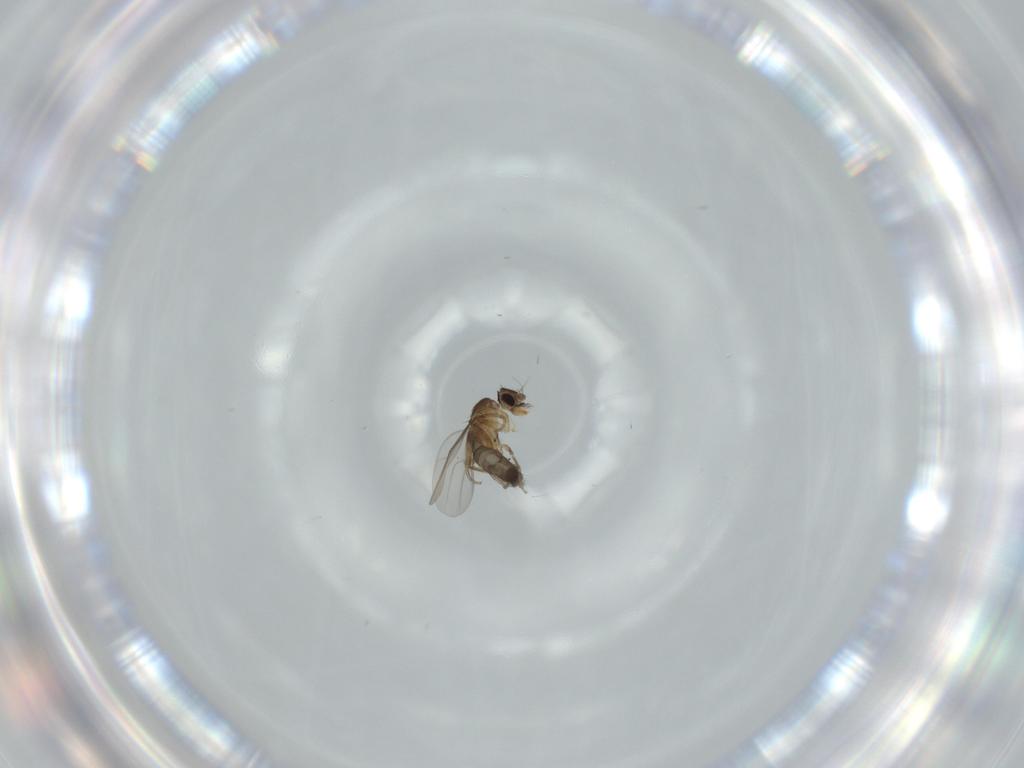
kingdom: Animalia
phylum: Arthropoda
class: Insecta
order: Diptera
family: Phoridae
